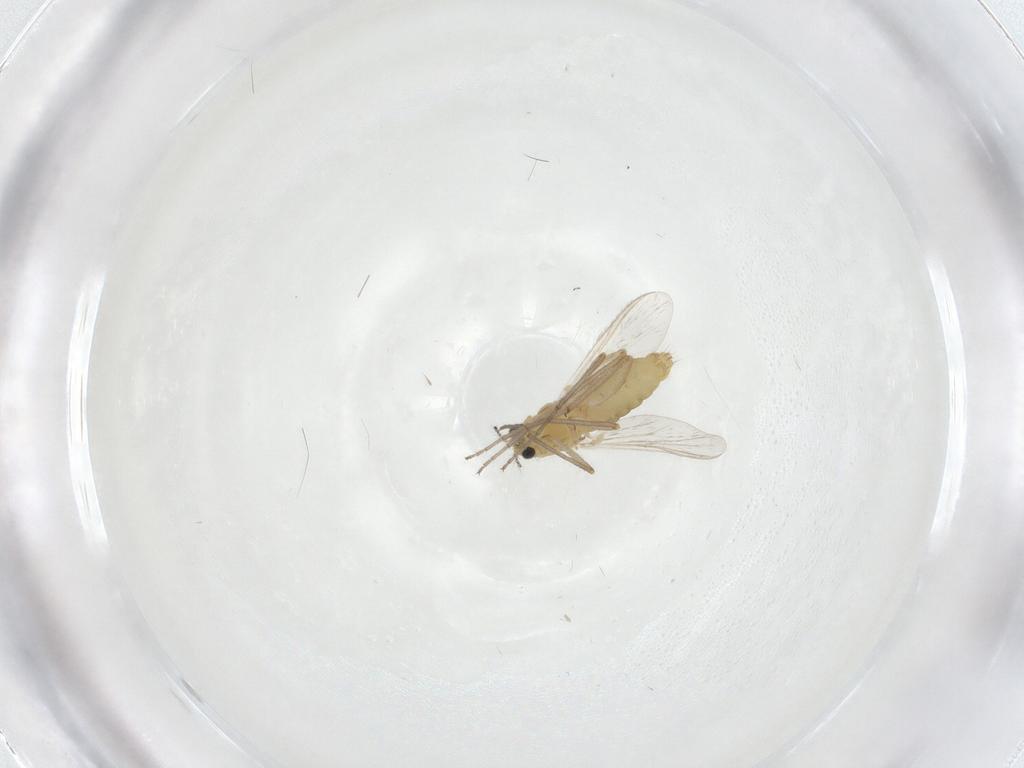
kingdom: Animalia
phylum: Arthropoda
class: Insecta
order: Diptera
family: Chironomidae
